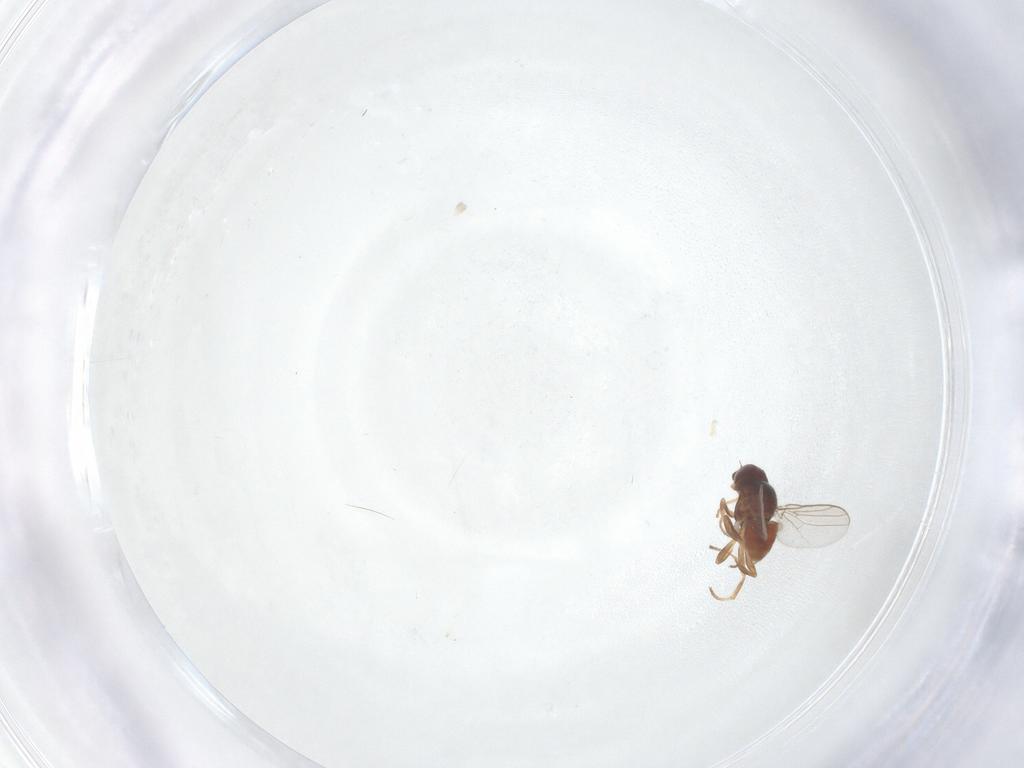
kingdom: Animalia
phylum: Arthropoda
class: Insecta
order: Diptera
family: Chloropidae
